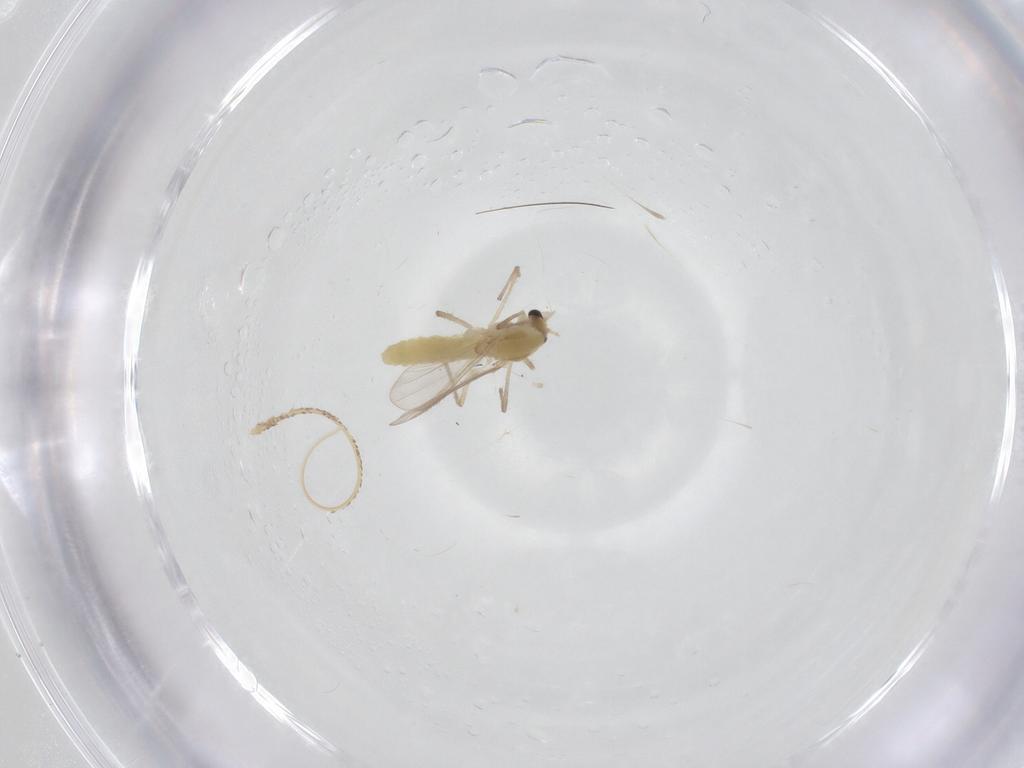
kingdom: Animalia
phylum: Arthropoda
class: Insecta
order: Diptera
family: Chironomidae
